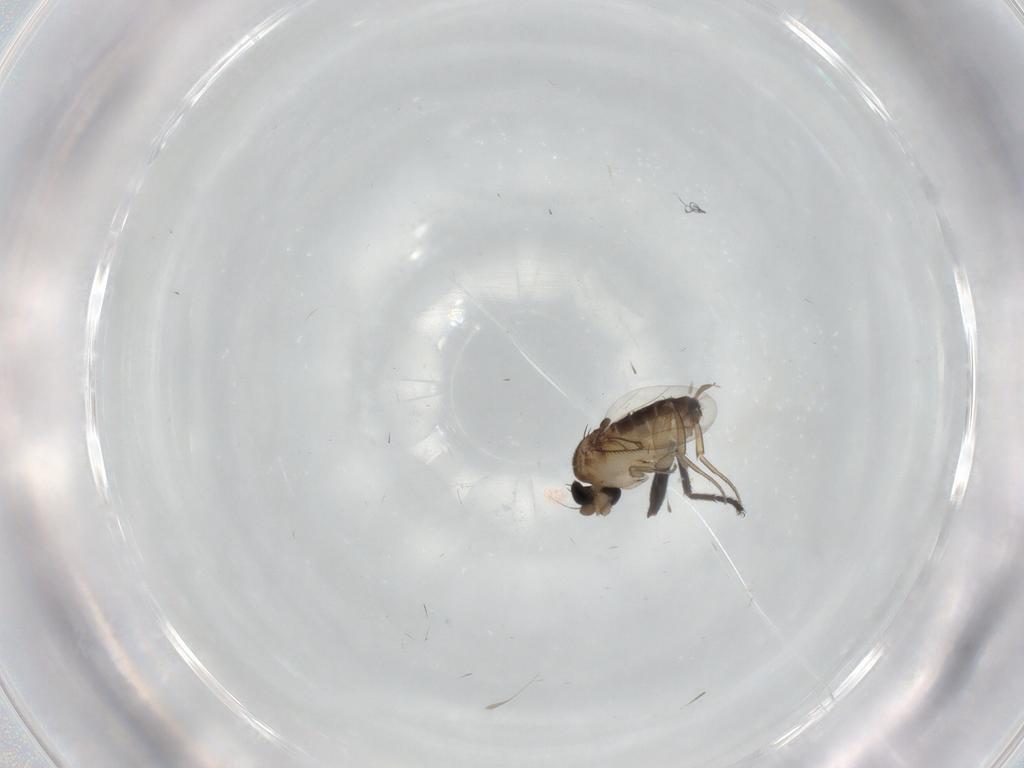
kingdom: Animalia
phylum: Arthropoda
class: Insecta
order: Diptera
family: Milichiidae
